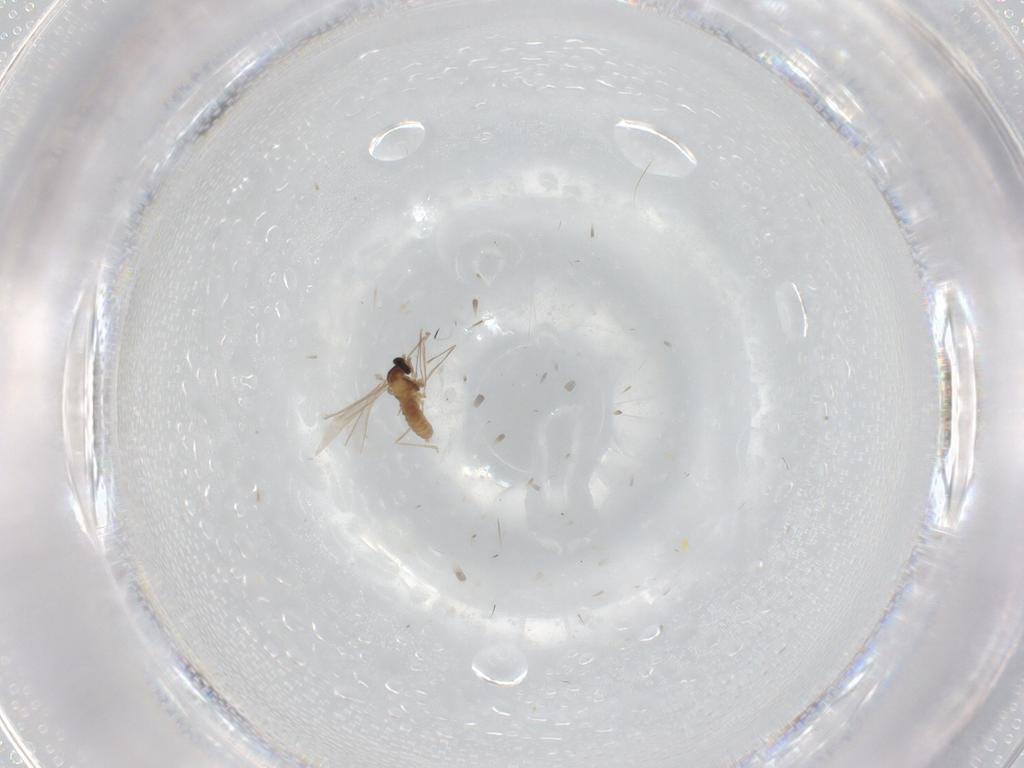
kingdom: Animalia
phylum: Arthropoda
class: Insecta
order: Diptera
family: Cecidomyiidae
